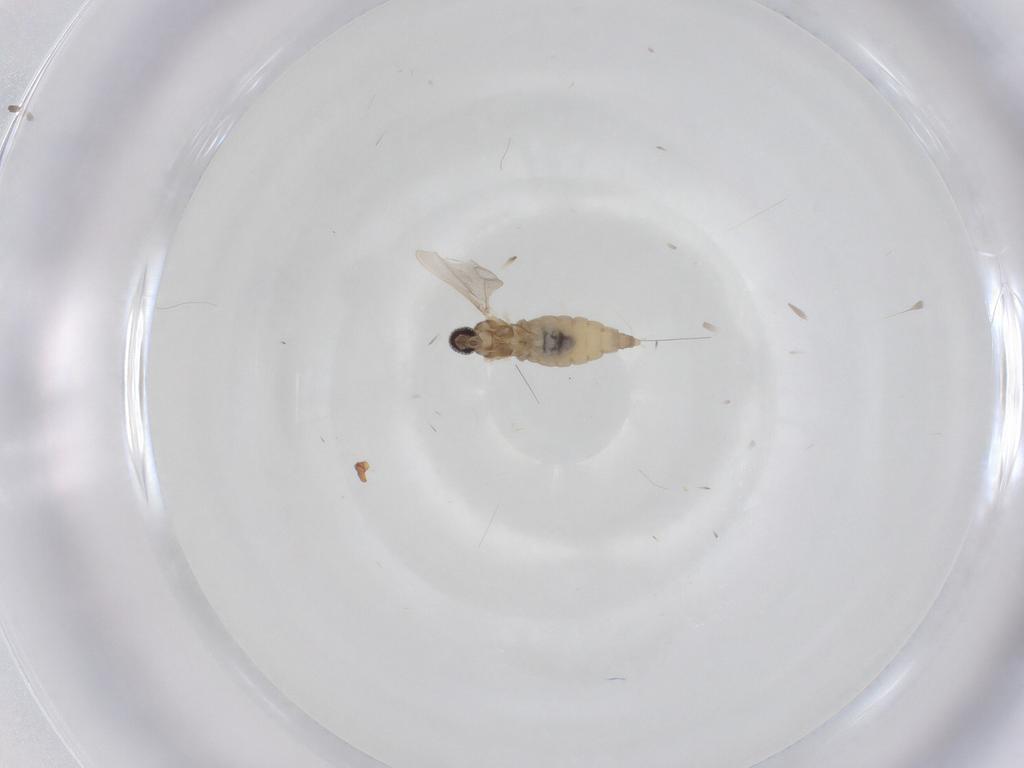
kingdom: Animalia
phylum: Arthropoda
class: Insecta
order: Diptera
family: Cecidomyiidae
